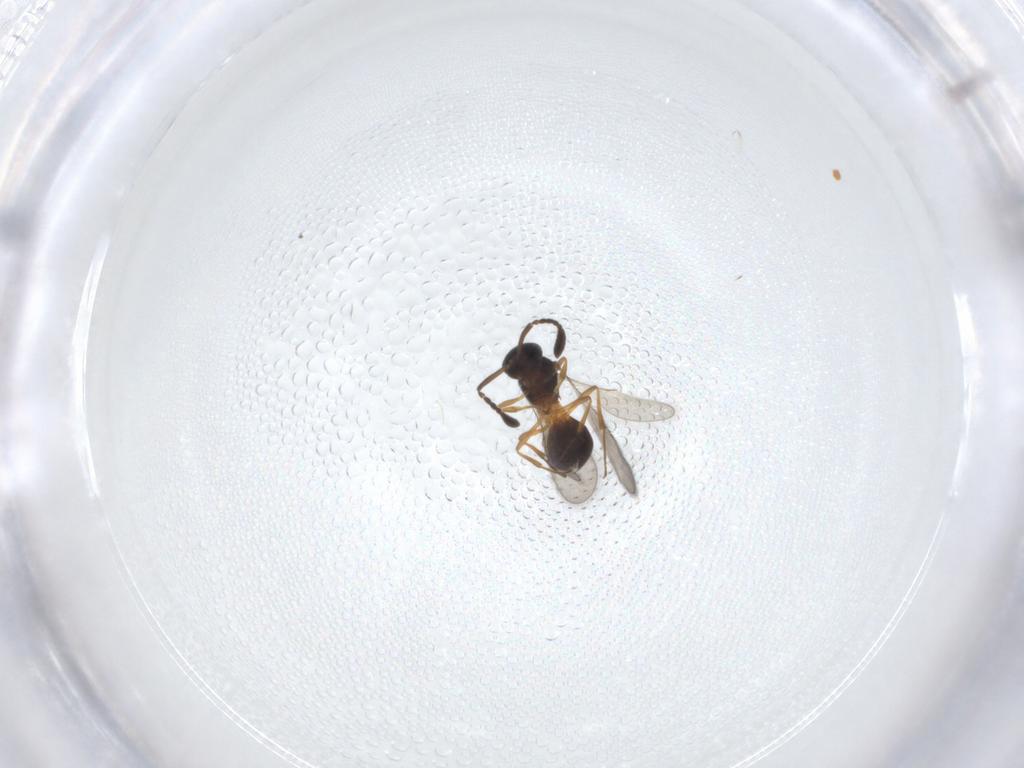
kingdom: Animalia
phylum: Arthropoda
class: Insecta
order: Hymenoptera
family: Scelionidae
